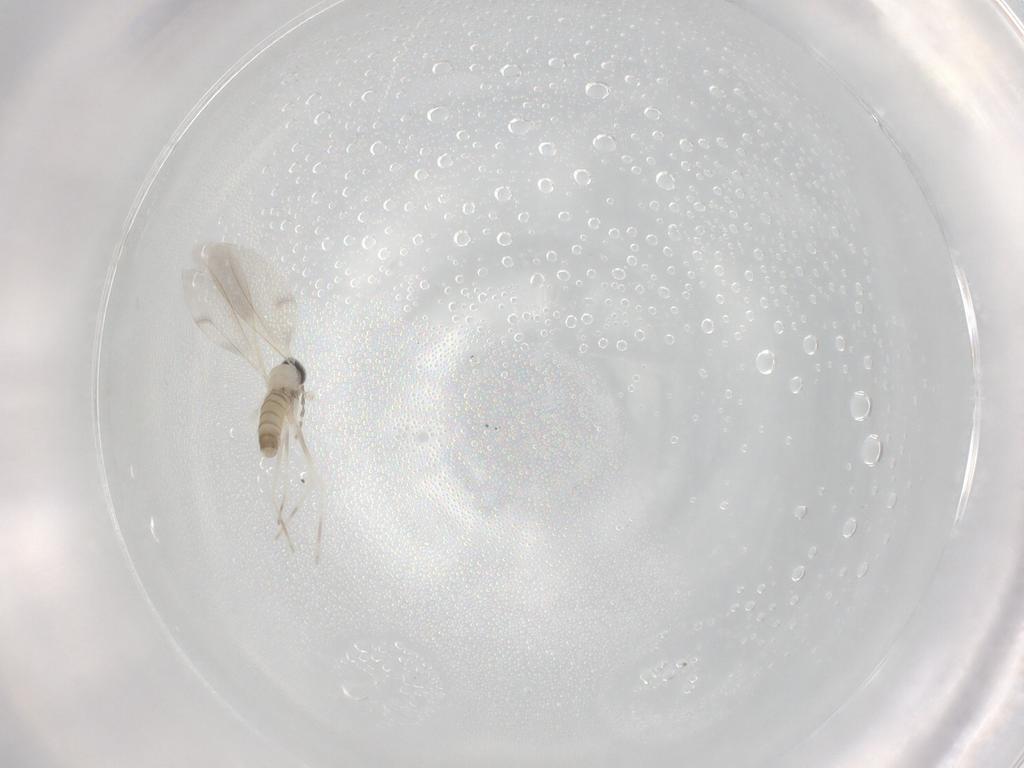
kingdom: Animalia
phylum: Arthropoda
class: Insecta
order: Diptera
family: Cecidomyiidae
